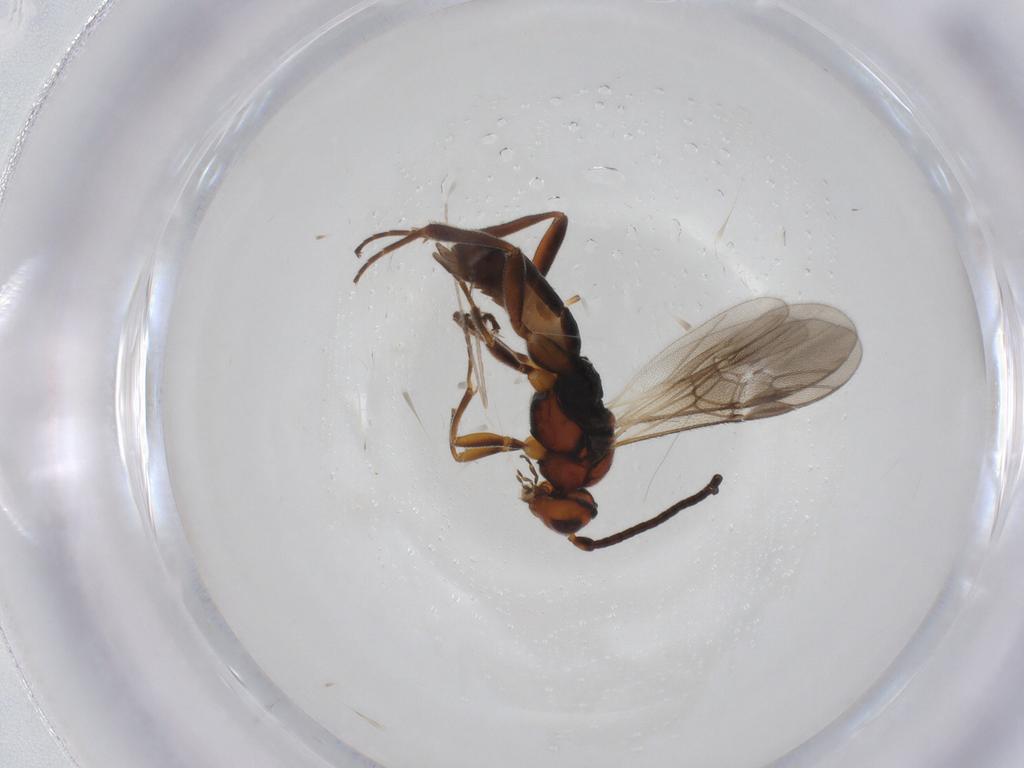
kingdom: Animalia
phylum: Arthropoda
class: Insecta
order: Hymenoptera
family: Braconidae
